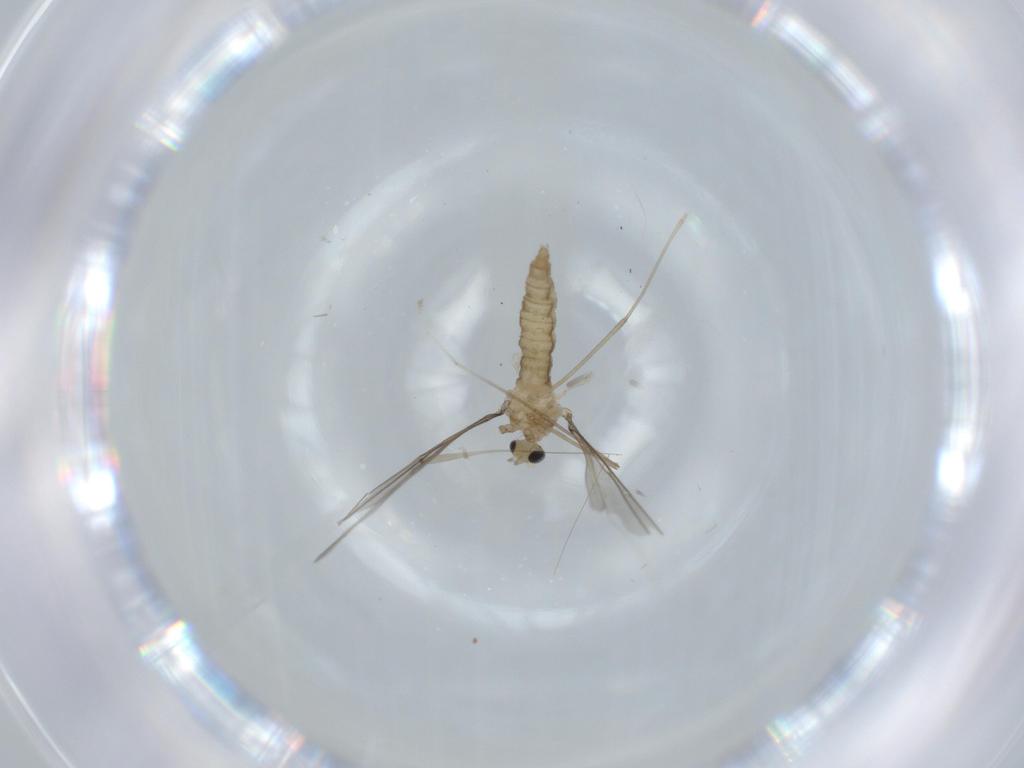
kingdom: Animalia
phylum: Arthropoda
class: Insecta
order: Diptera
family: Cecidomyiidae
